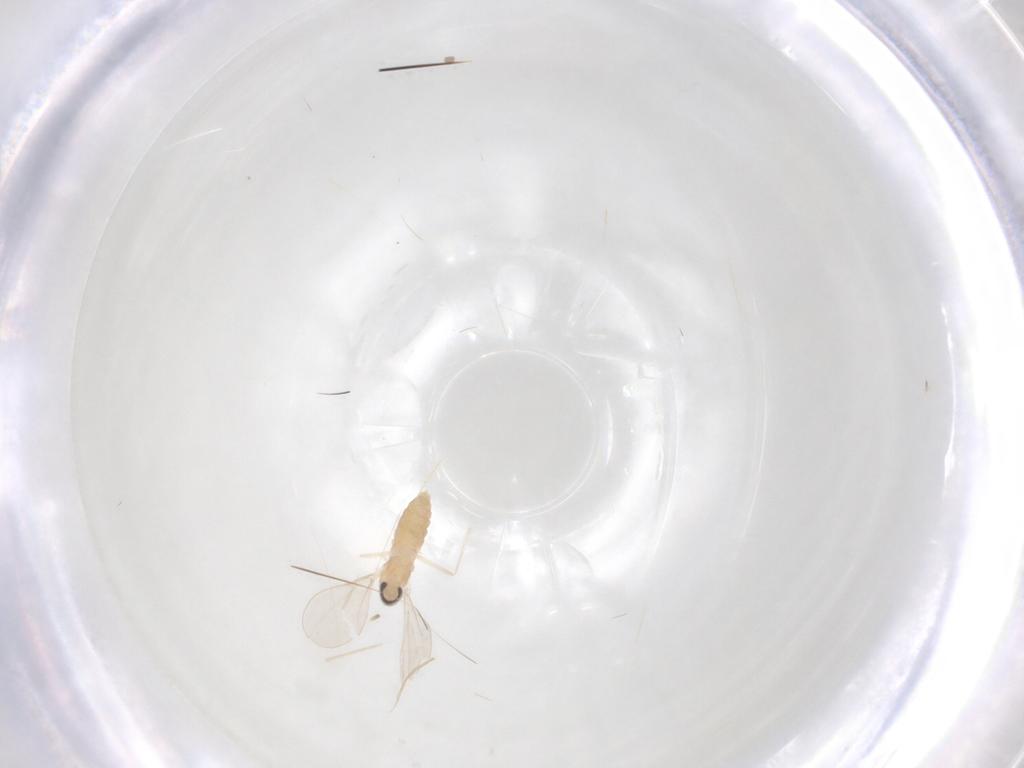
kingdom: Animalia
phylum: Arthropoda
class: Insecta
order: Diptera
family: Cecidomyiidae
